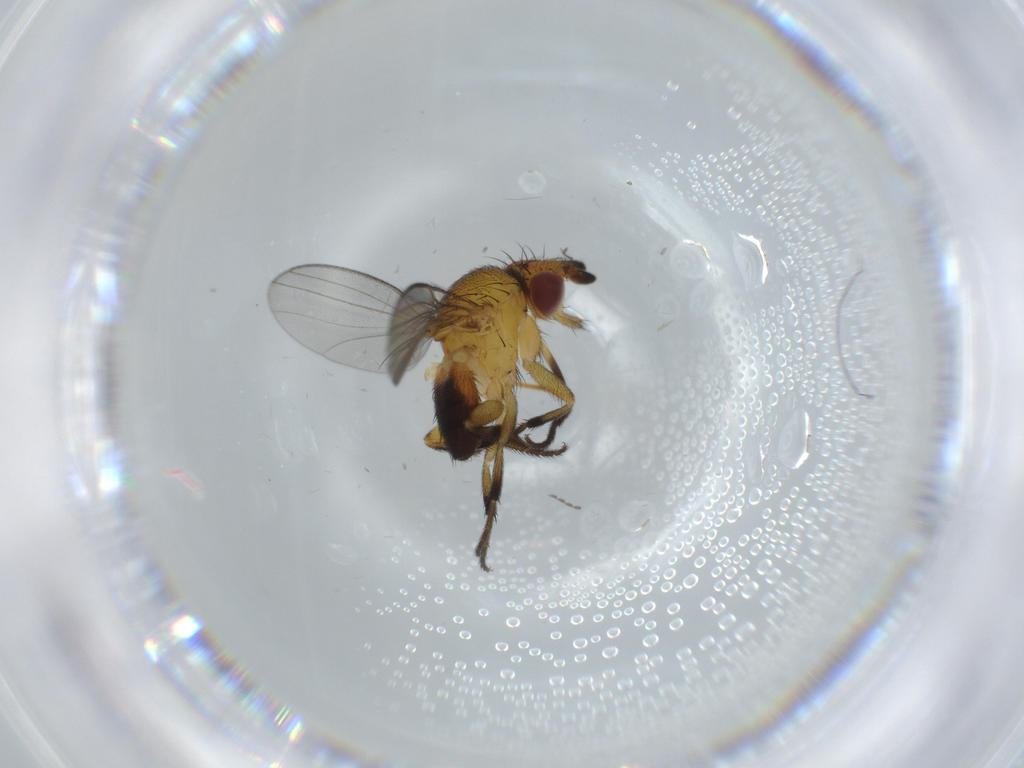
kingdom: Animalia
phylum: Arthropoda
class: Insecta
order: Diptera
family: Milichiidae
